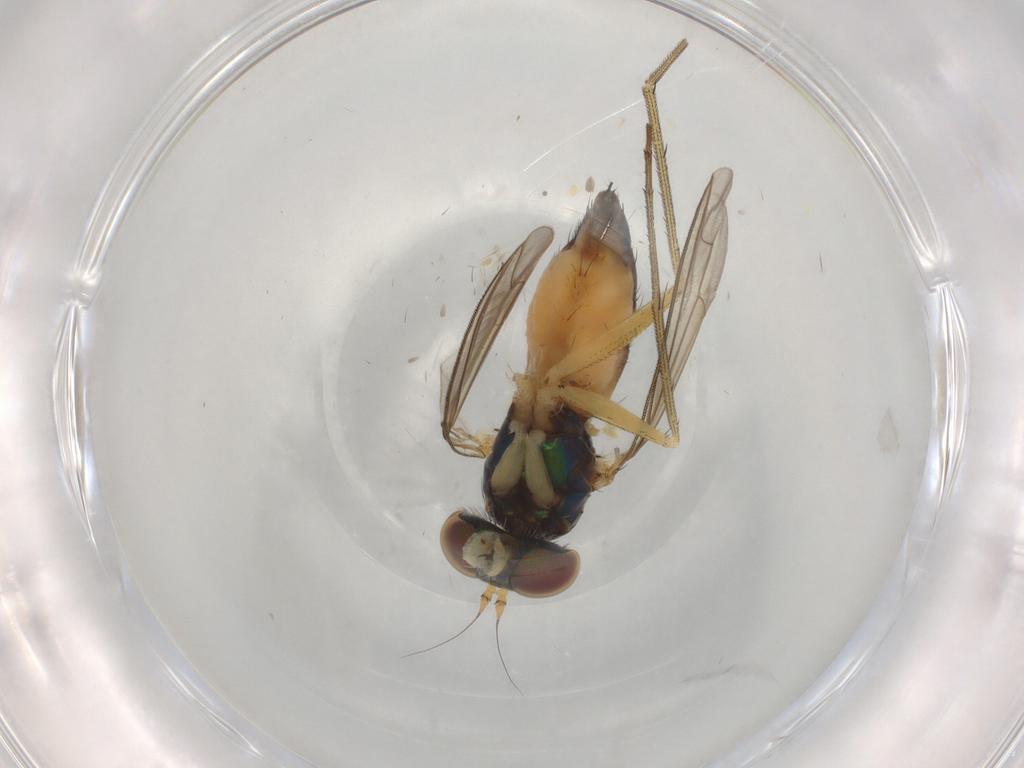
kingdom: Animalia
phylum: Arthropoda
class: Insecta
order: Diptera
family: Dolichopodidae
